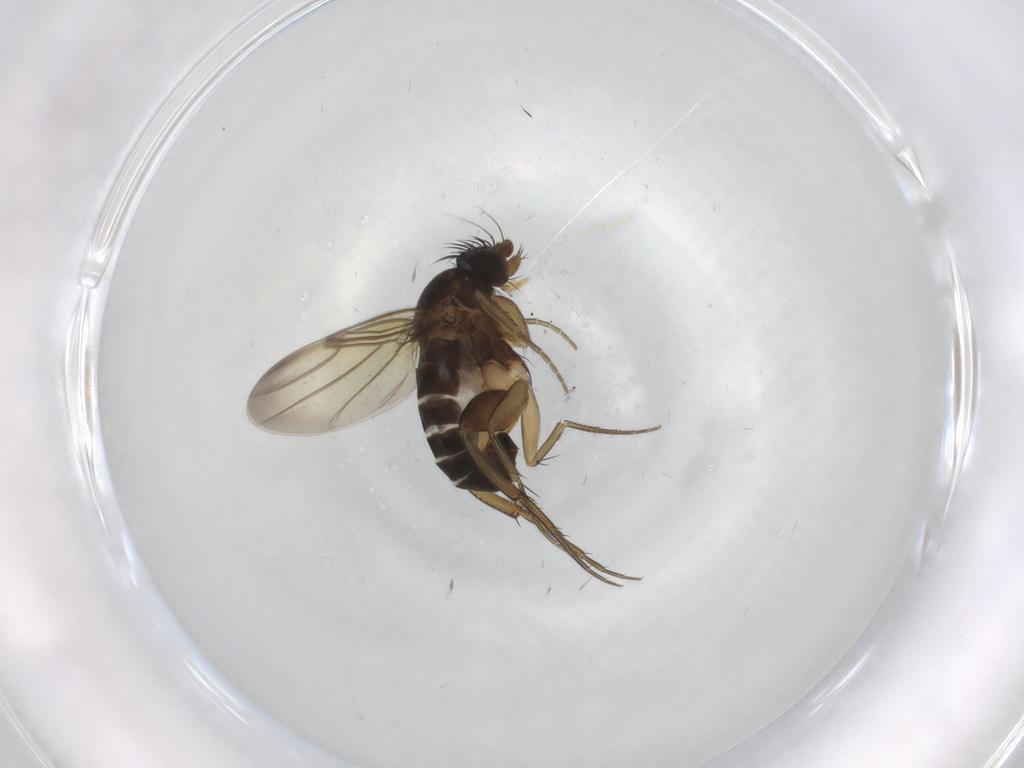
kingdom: Animalia
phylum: Arthropoda
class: Insecta
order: Diptera
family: Phoridae
